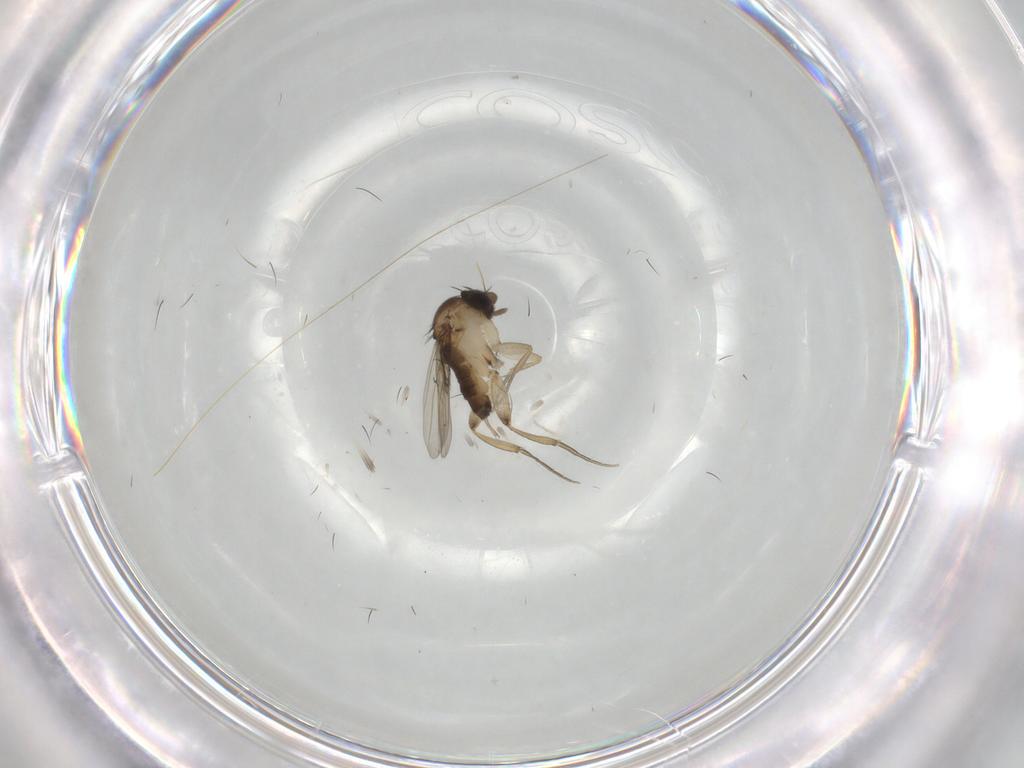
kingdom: Animalia
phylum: Arthropoda
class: Insecta
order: Diptera
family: Phoridae
